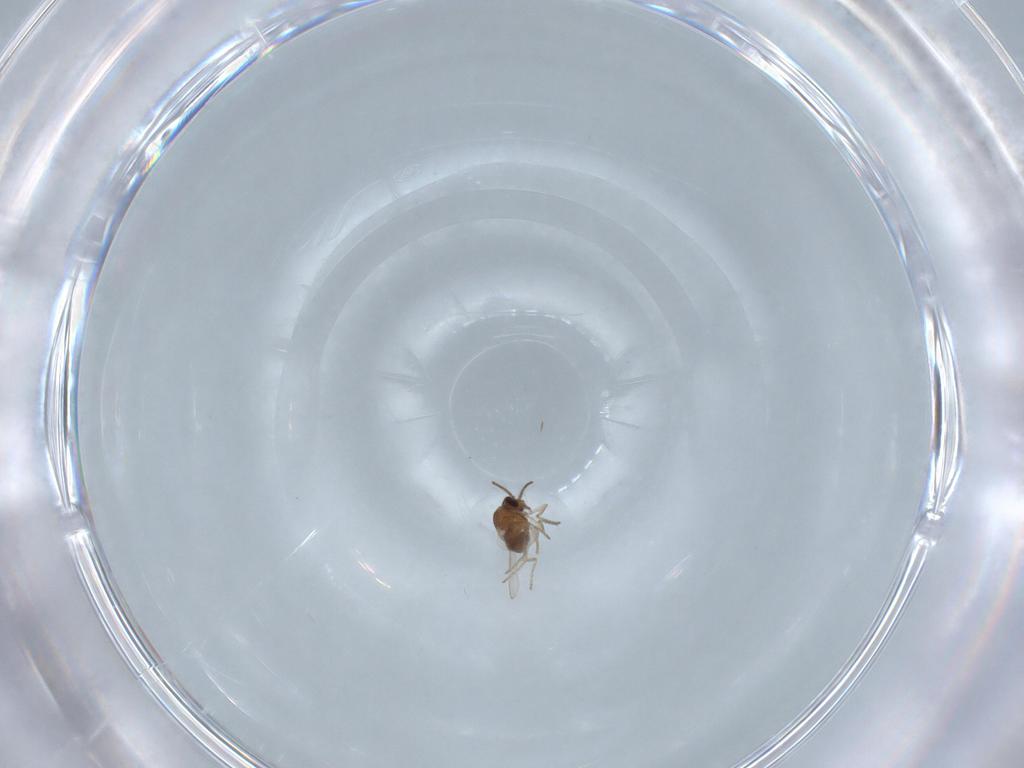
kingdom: Animalia
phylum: Arthropoda
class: Insecta
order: Diptera
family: Ceratopogonidae
